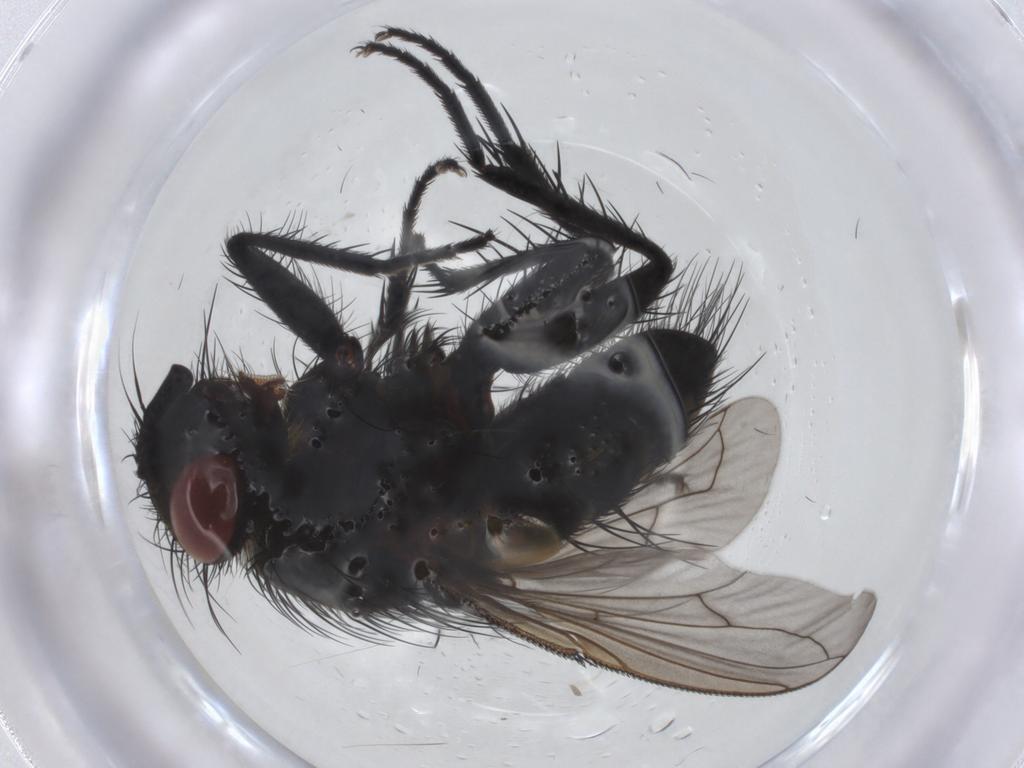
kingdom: Animalia
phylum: Arthropoda
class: Insecta
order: Diptera
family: Tachinidae
